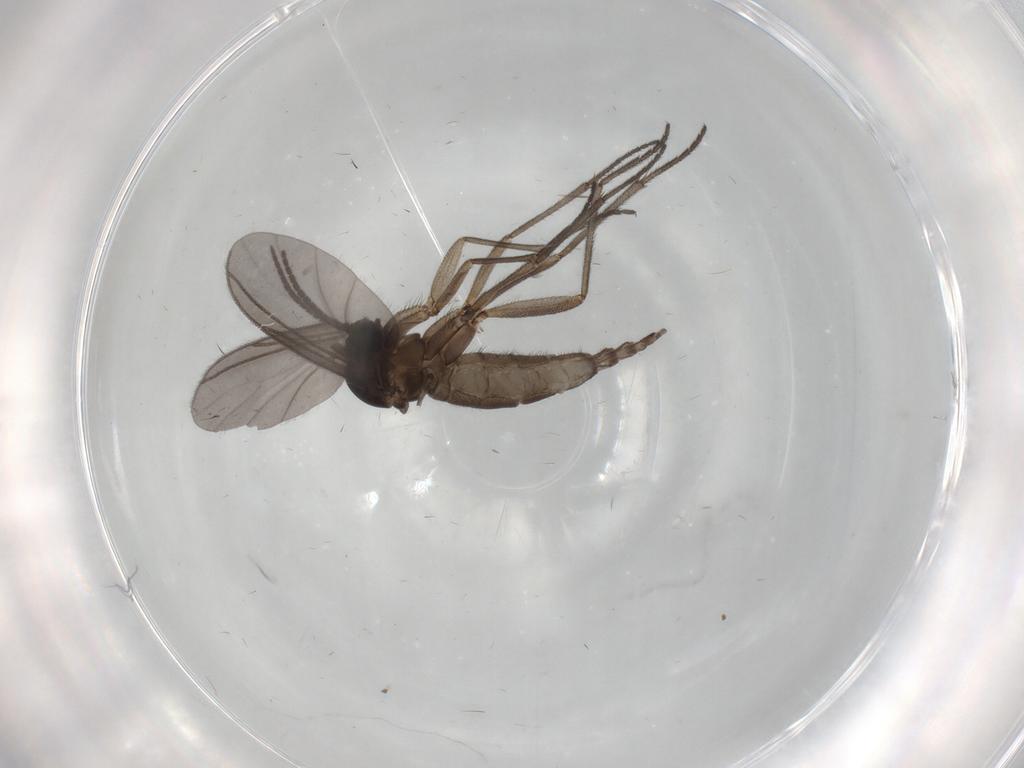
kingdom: Animalia
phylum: Arthropoda
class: Insecta
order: Diptera
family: Sciaridae
